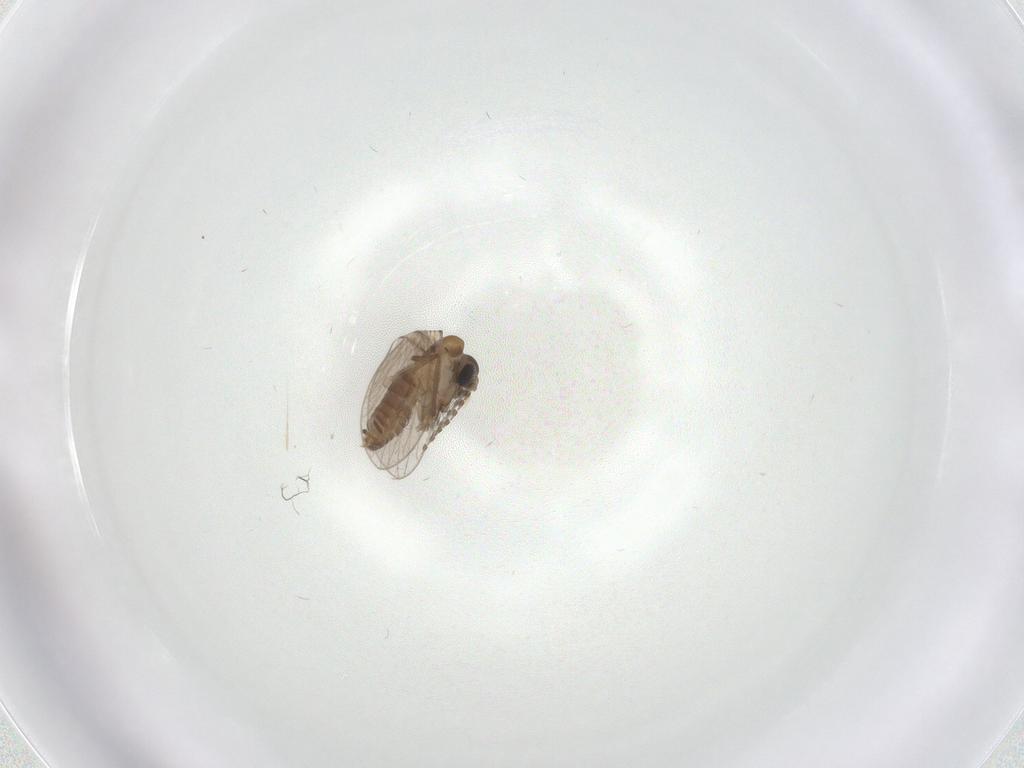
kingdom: Animalia
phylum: Arthropoda
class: Insecta
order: Diptera
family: Psychodidae
